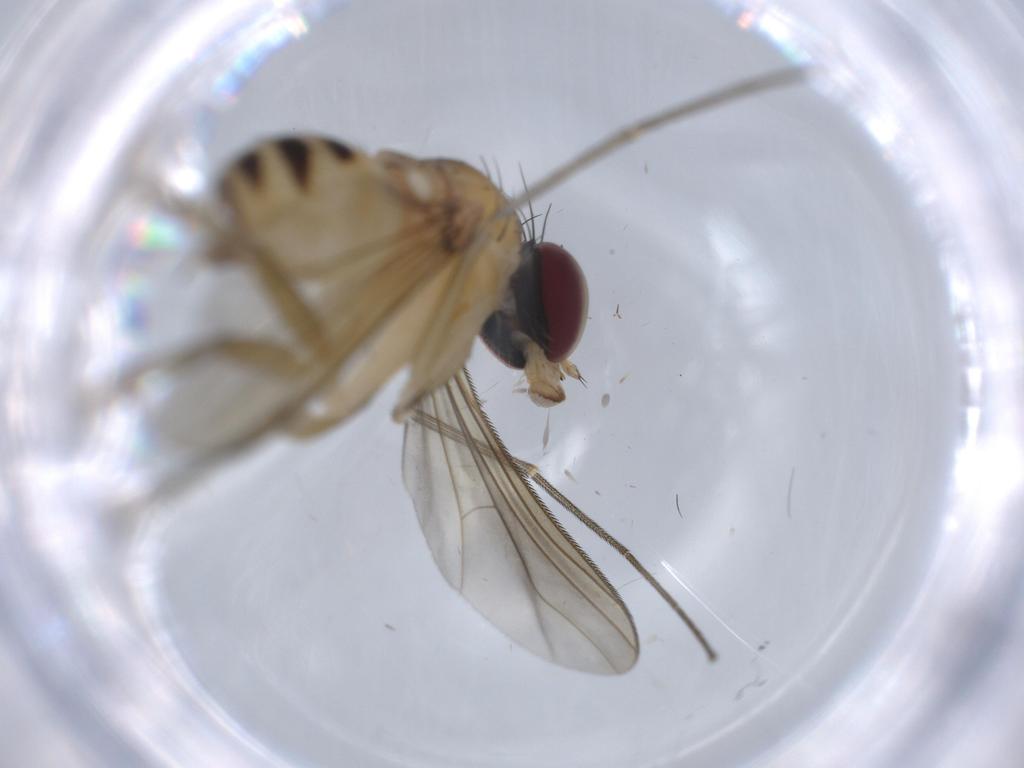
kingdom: Animalia
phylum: Arthropoda
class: Insecta
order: Diptera
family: Dolichopodidae
